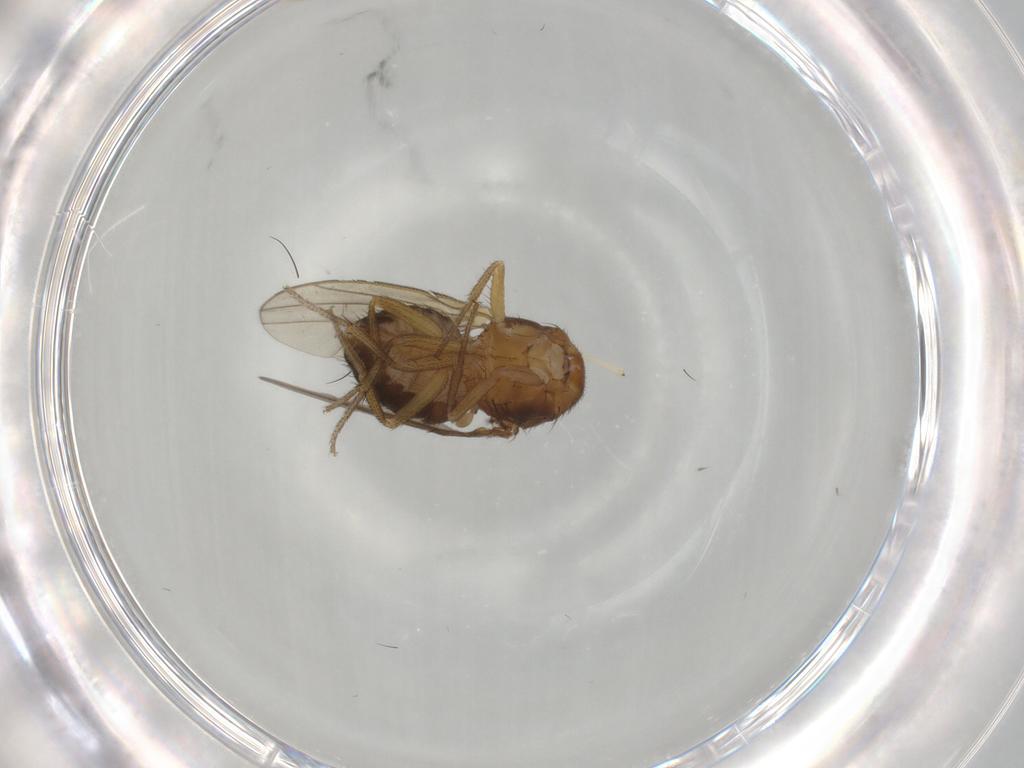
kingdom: Animalia
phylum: Arthropoda
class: Insecta
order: Diptera
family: Drosophilidae
